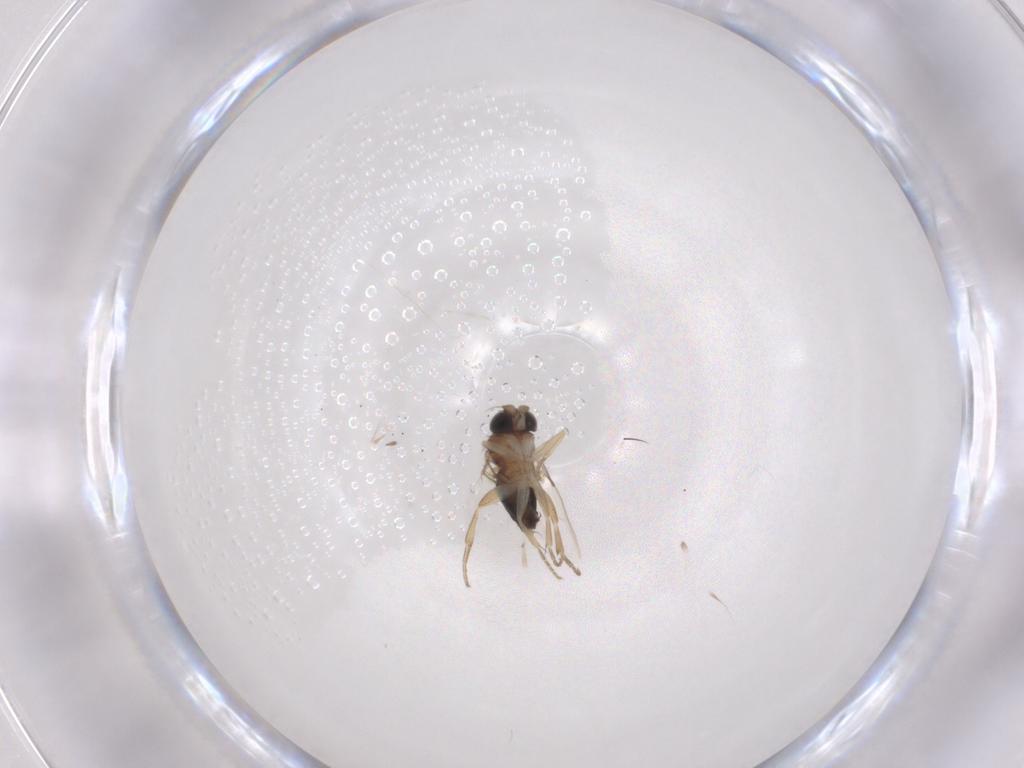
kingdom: Animalia
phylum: Arthropoda
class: Insecta
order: Diptera
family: Phoridae
